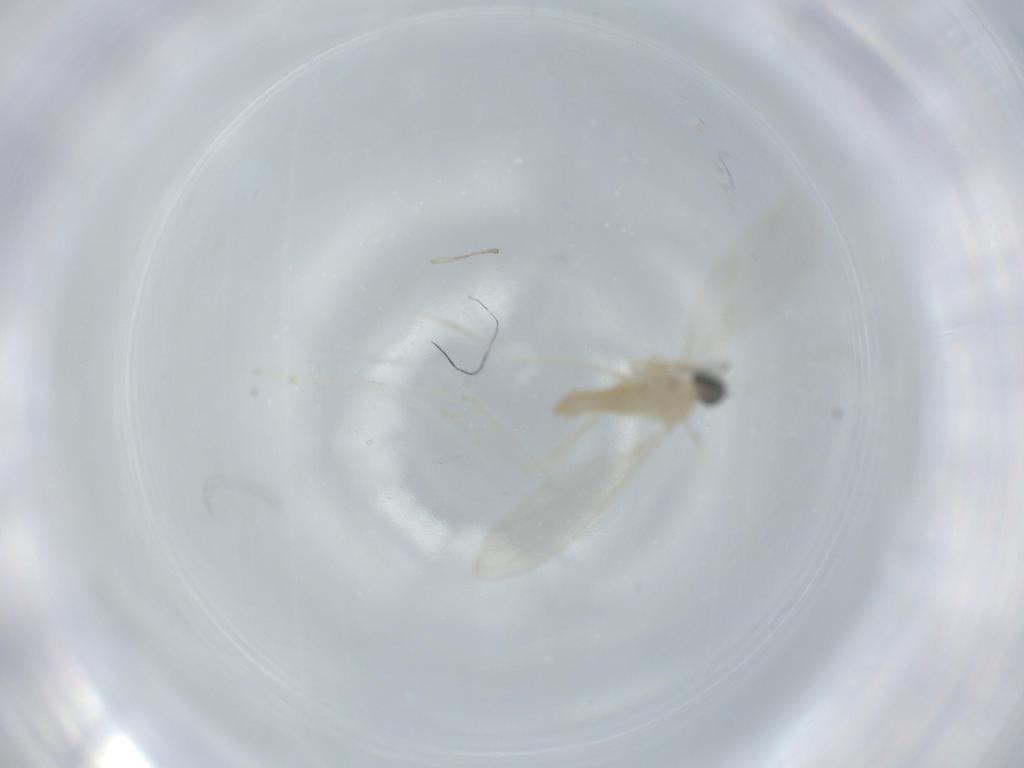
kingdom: Animalia
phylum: Arthropoda
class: Insecta
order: Diptera
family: Cecidomyiidae
